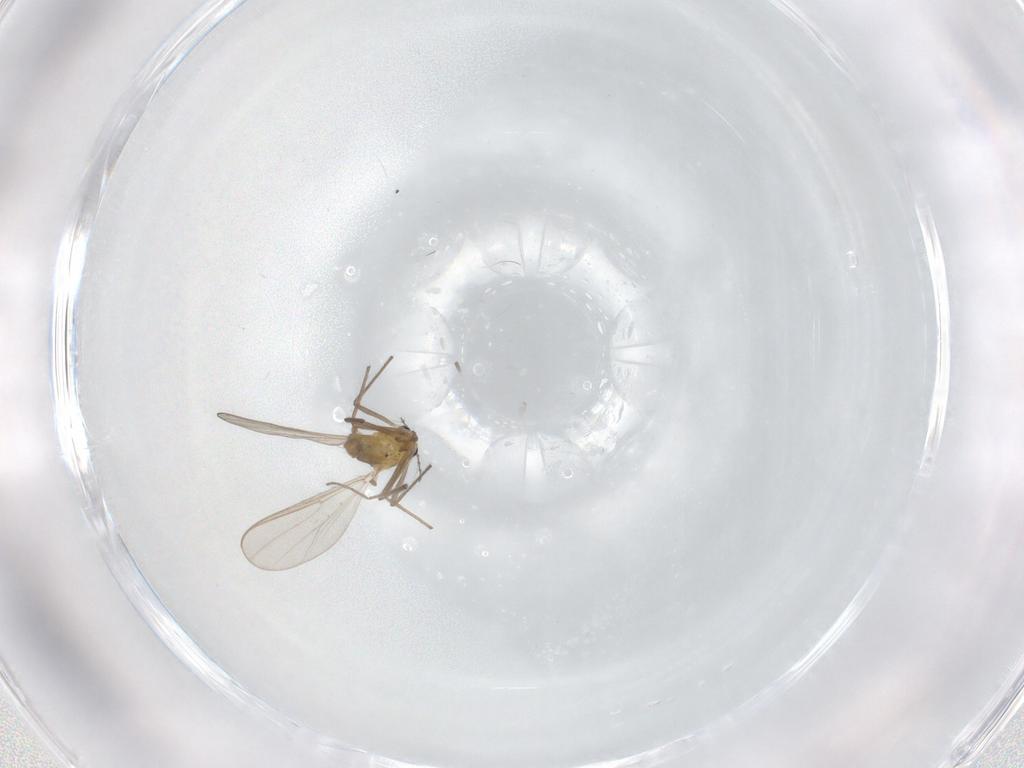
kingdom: Animalia
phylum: Arthropoda
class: Insecta
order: Diptera
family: Chironomidae
